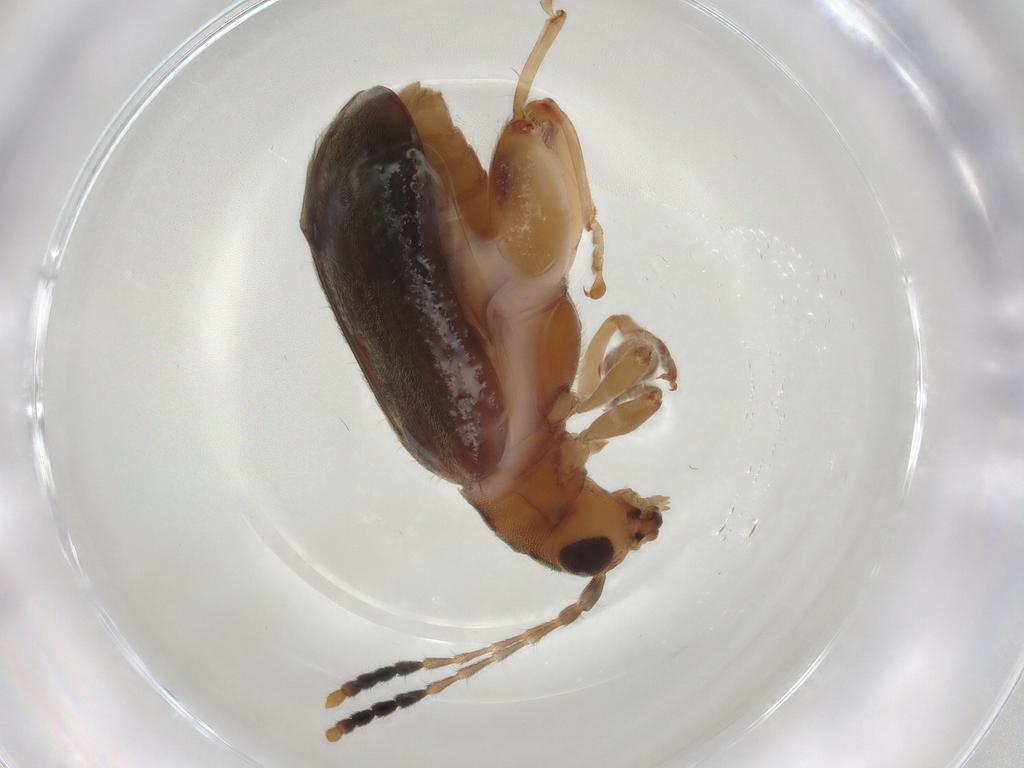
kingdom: Animalia
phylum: Arthropoda
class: Insecta
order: Coleoptera
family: Chrysomelidae
